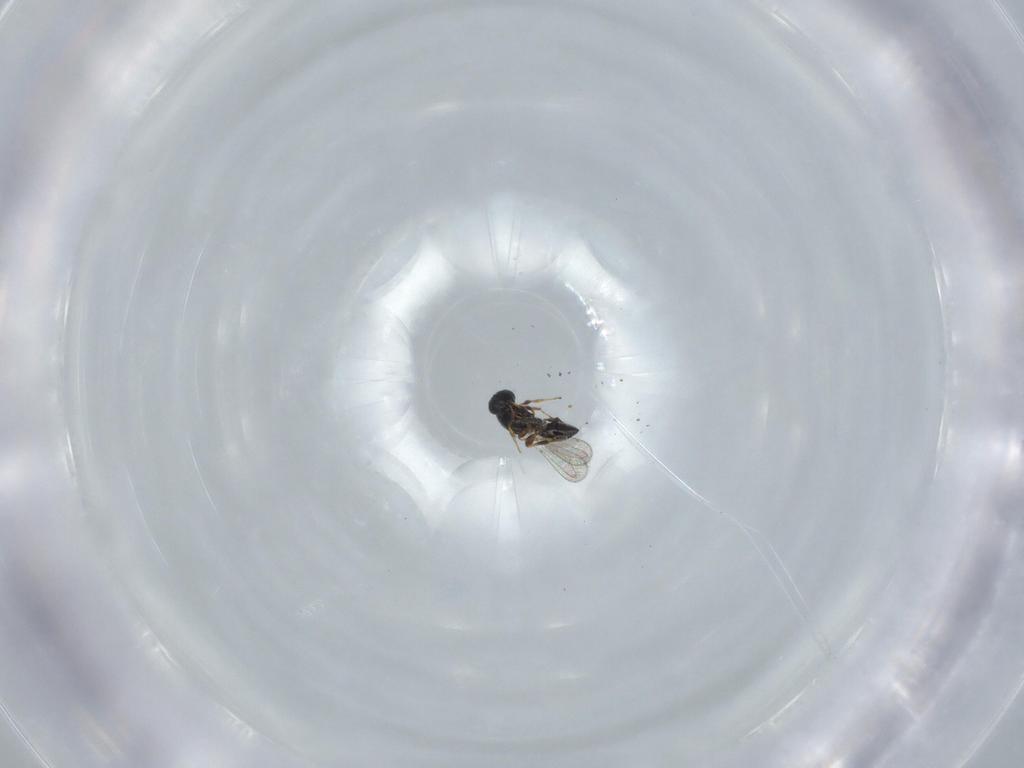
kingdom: Animalia
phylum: Arthropoda
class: Insecta
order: Hymenoptera
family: Platygastridae
